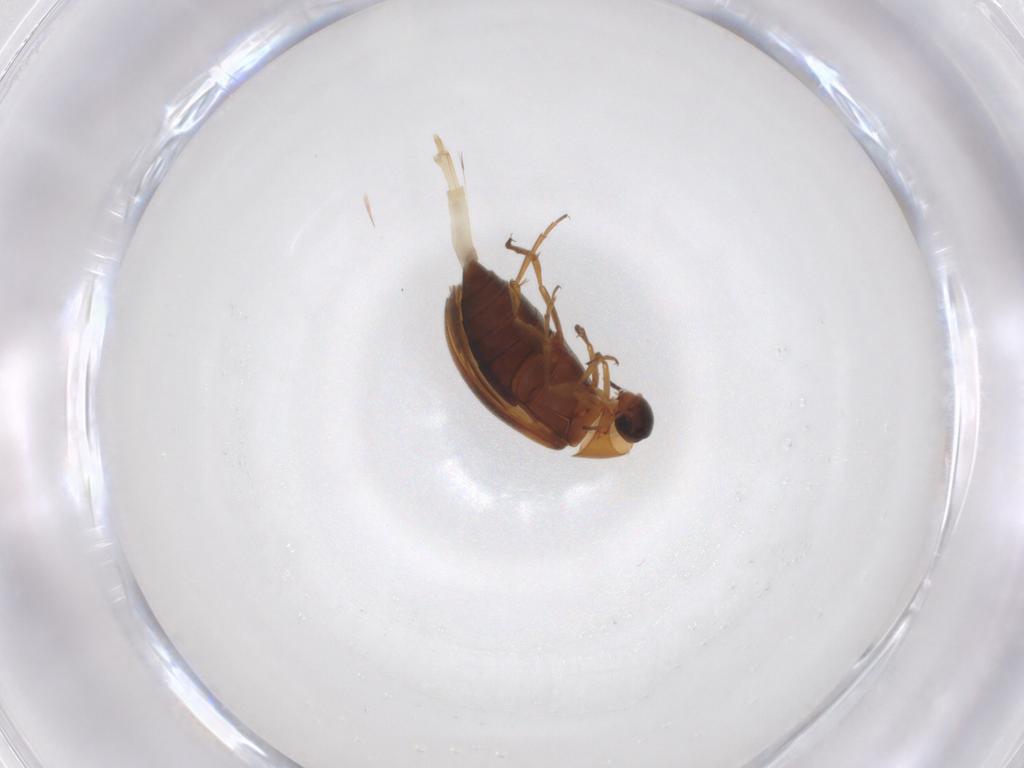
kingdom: Animalia
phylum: Arthropoda
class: Insecta
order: Coleoptera
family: Scraptiidae
